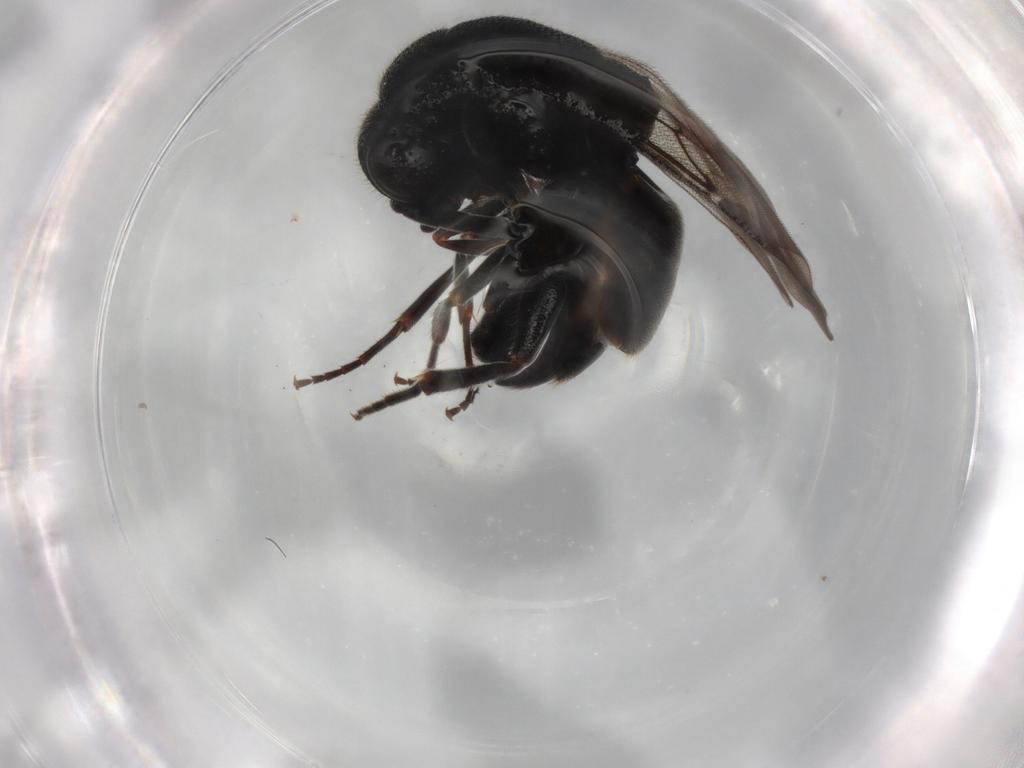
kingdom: Animalia
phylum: Arthropoda
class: Insecta
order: Hymenoptera
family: Chrysididae
